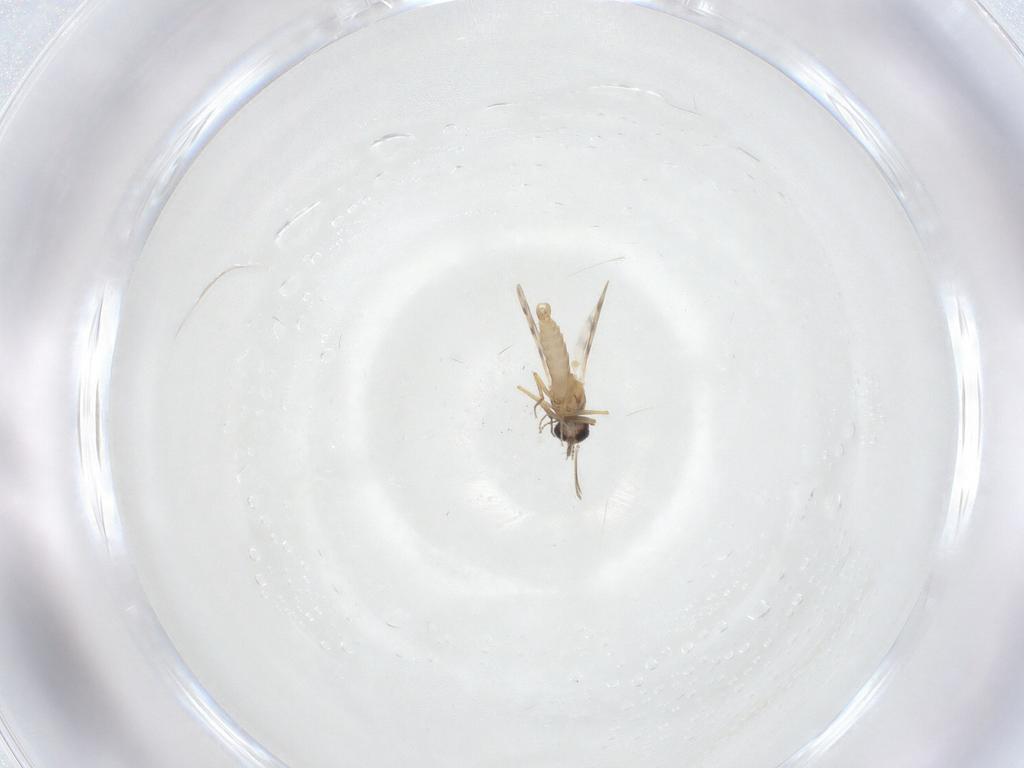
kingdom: Animalia
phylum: Arthropoda
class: Insecta
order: Diptera
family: Ceratopogonidae
